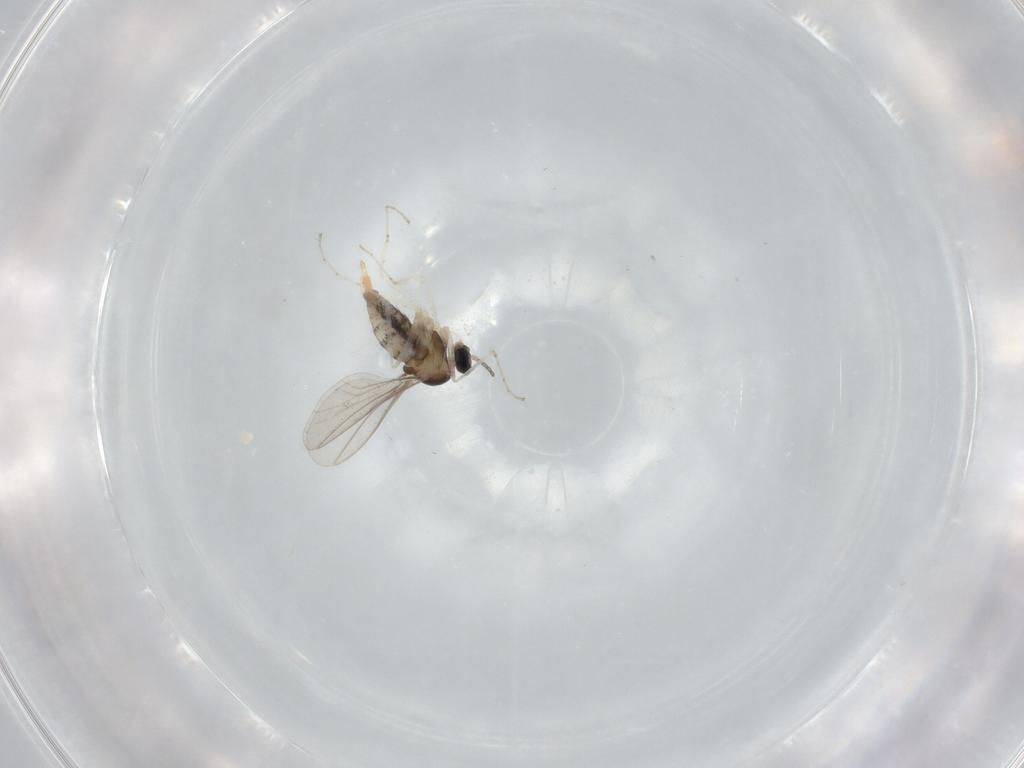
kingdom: Animalia
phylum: Arthropoda
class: Insecta
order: Diptera
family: Cecidomyiidae
